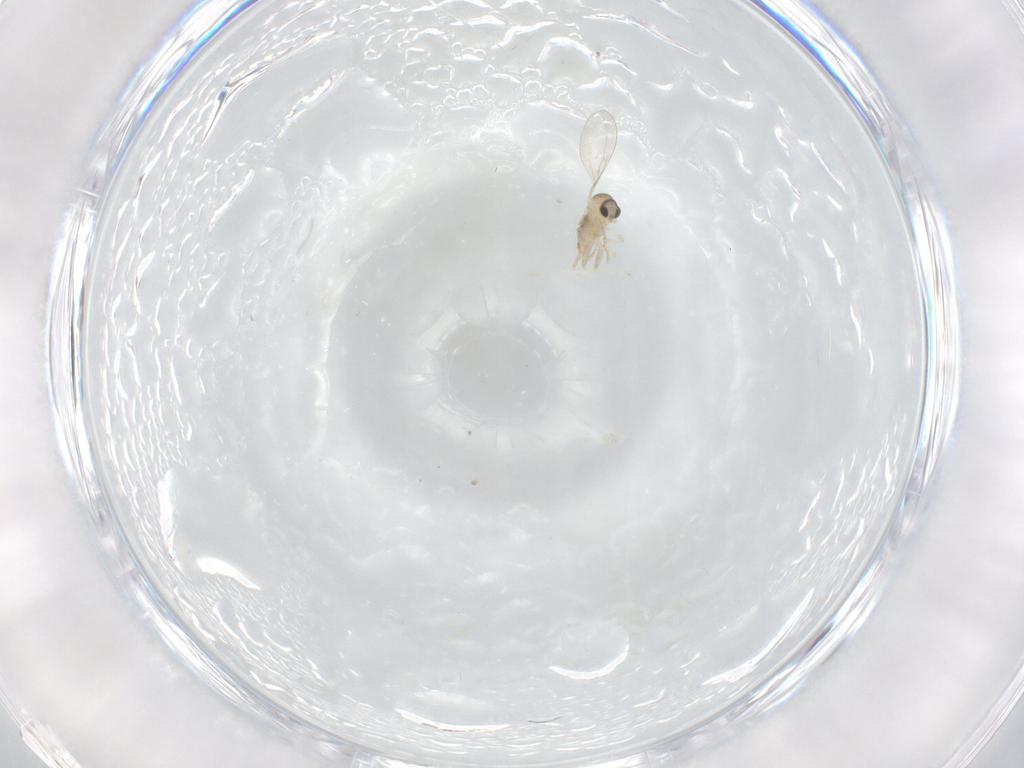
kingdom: Animalia
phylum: Arthropoda
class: Insecta
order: Diptera
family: Cecidomyiidae
